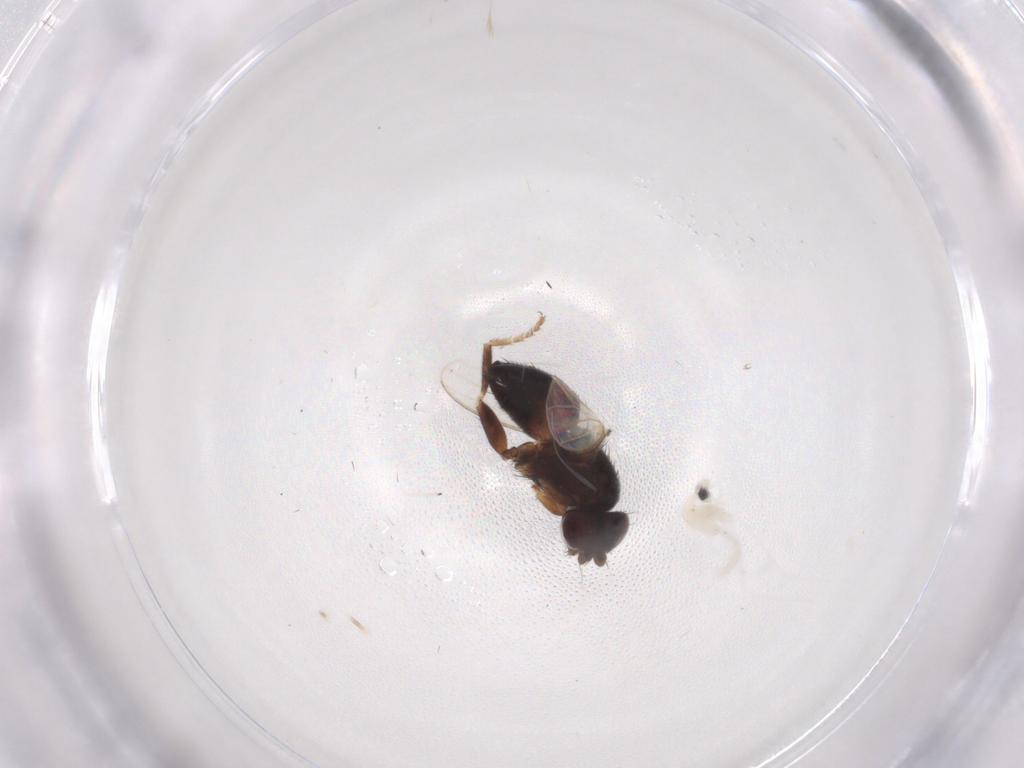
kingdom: Animalia
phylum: Arthropoda
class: Insecta
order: Diptera
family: Milichiidae
